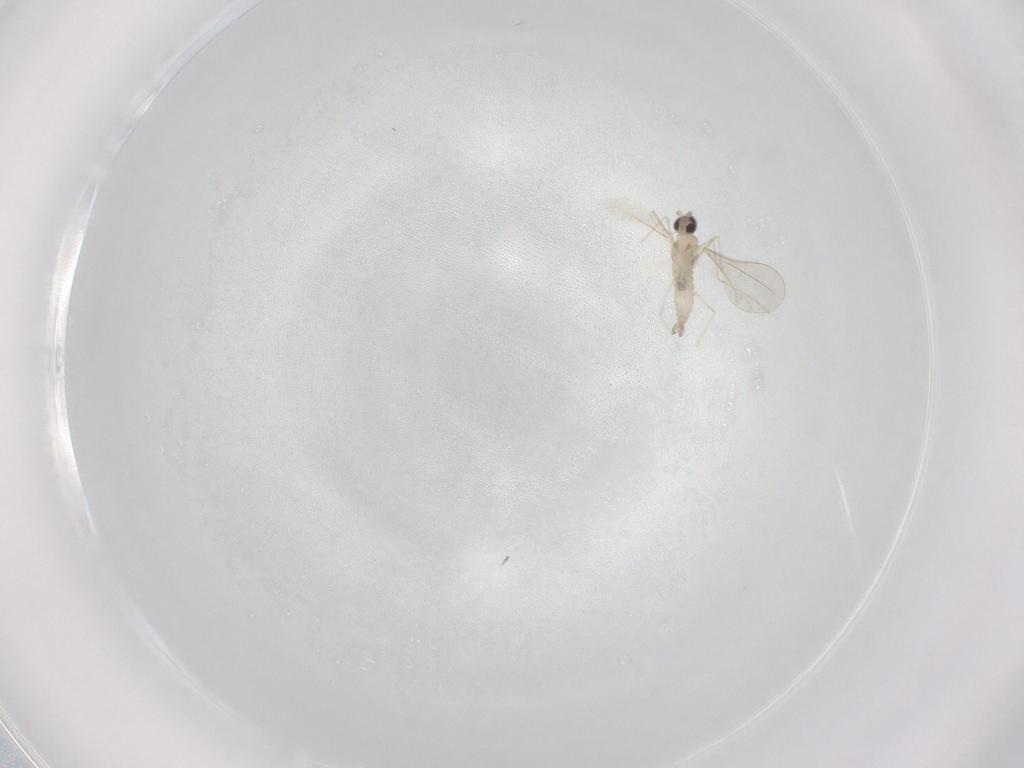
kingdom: Animalia
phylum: Arthropoda
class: Insecta
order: Diptera
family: Cecidomyiidae
